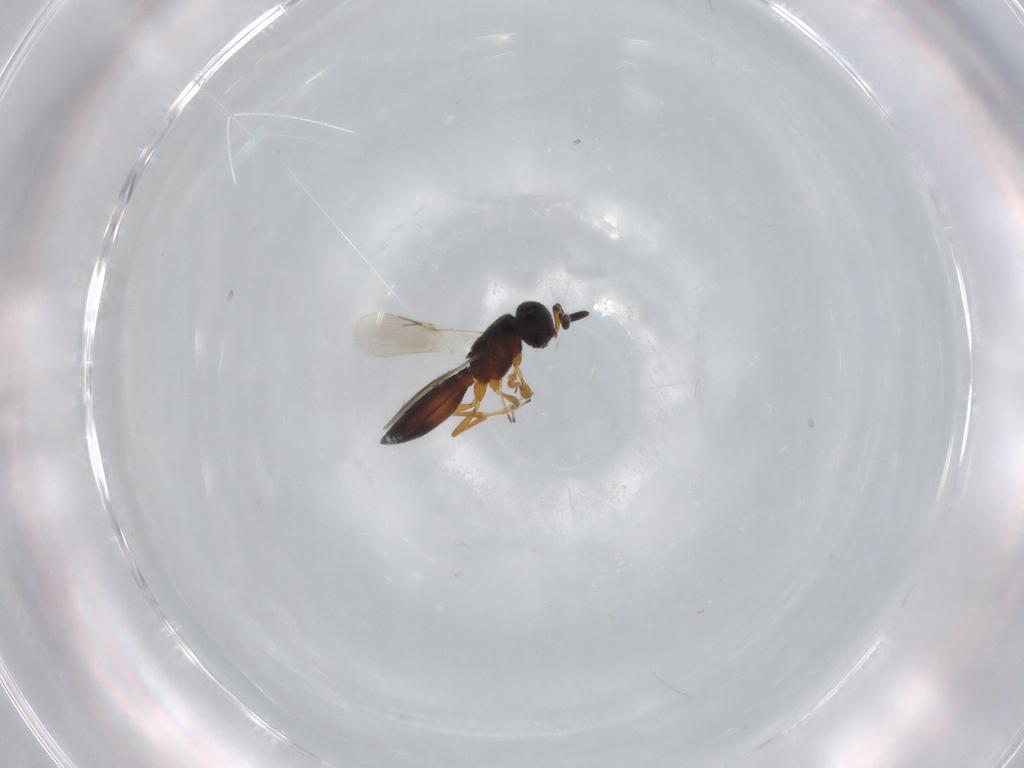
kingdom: Animalia
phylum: Arthropoda
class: Insecta
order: Hymenoptera
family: Scelionidae
